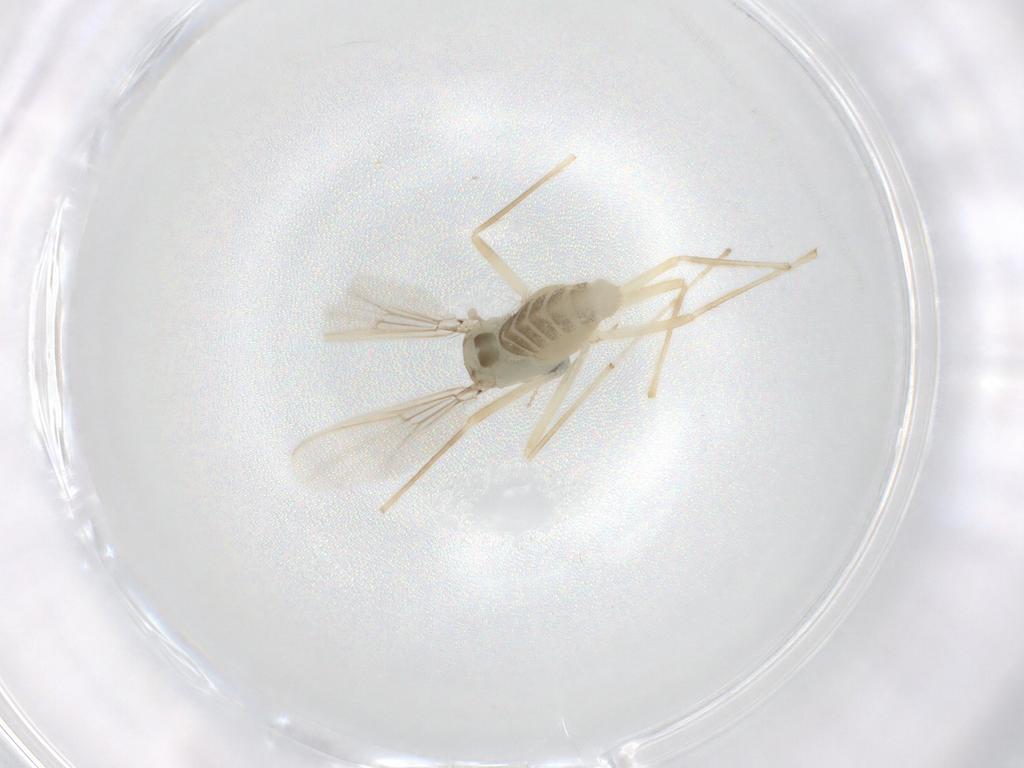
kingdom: Animalia
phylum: Arthropoda
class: Insecta
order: Diptera
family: Chironomidae
